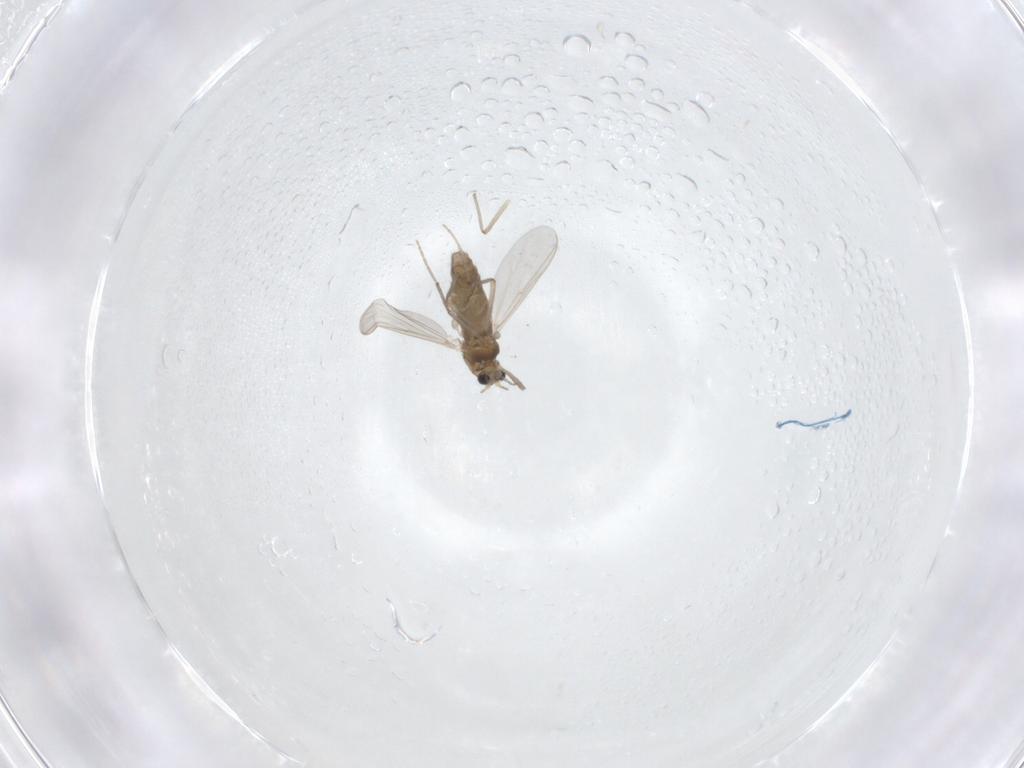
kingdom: Animalia
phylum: Arthropoda
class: Insecta
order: Diptera
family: Chironomidae
